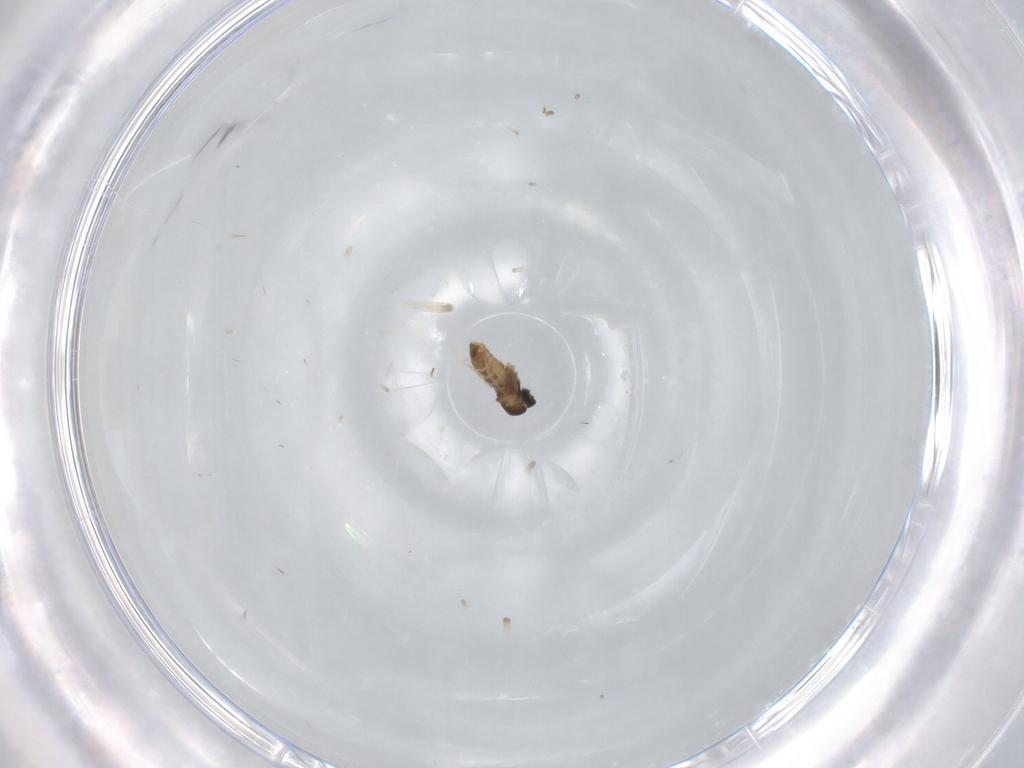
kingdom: Animalia
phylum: Arthropoda
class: Insecta
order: Diptera
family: Cecidomyiidae
